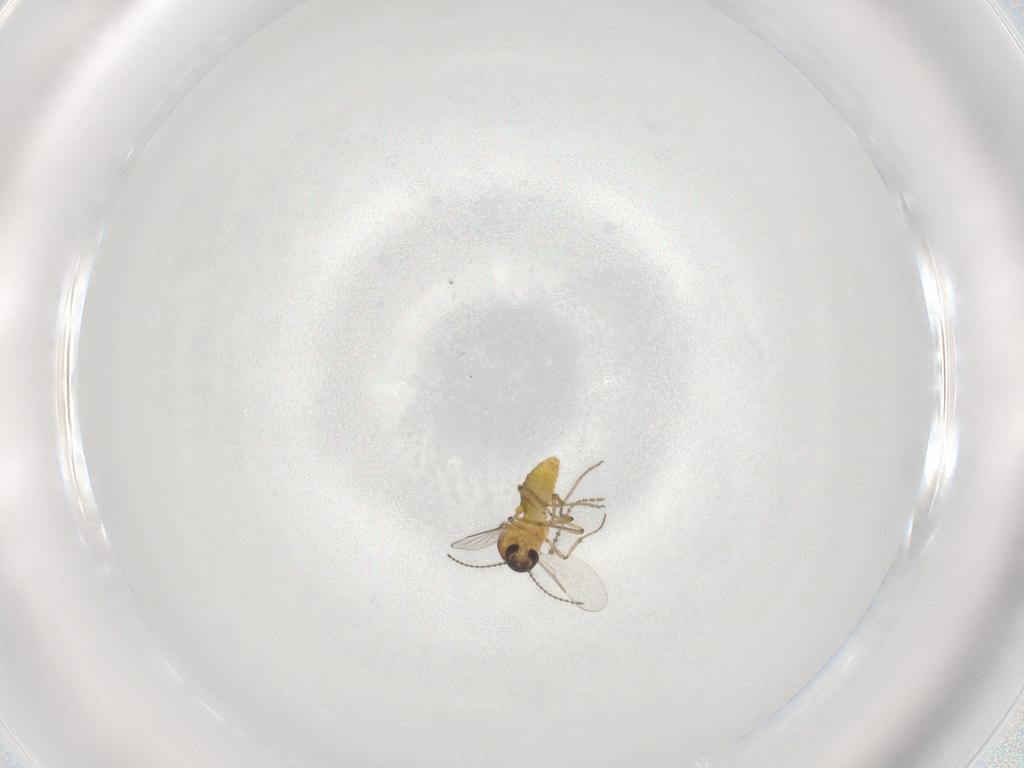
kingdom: Animalia
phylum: Arthropoda
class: Insecta
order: Diptera
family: Ceratopogonidae
